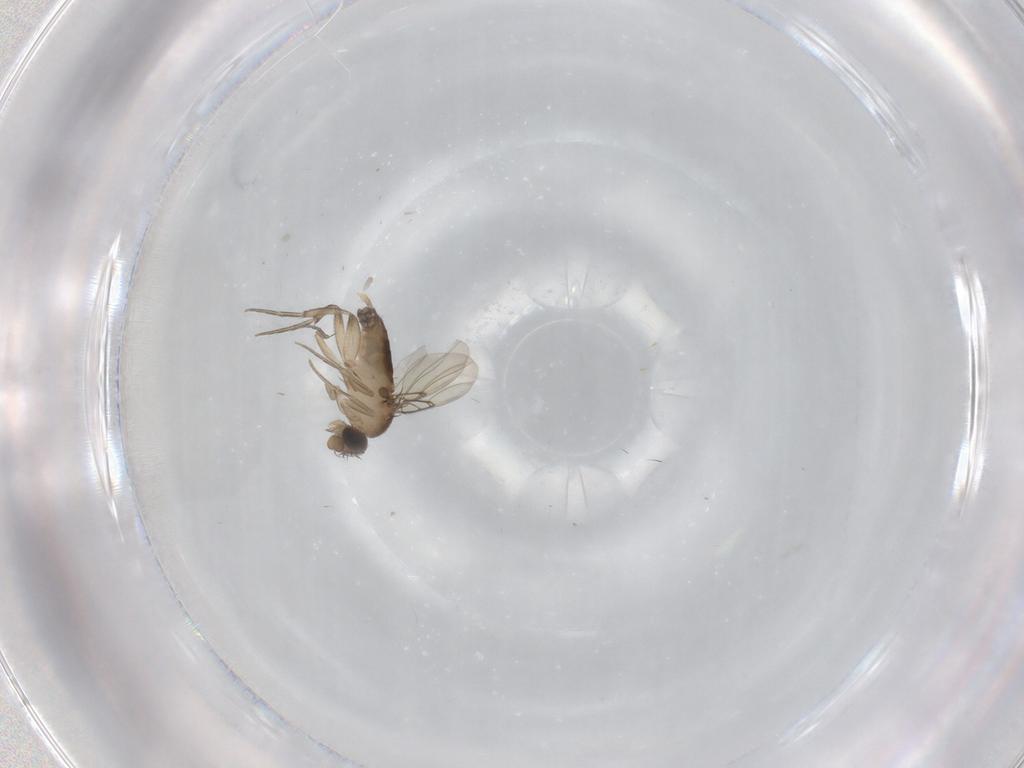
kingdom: Animalia
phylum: Arthropoda
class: Insecta
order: Diptera
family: Phoridae
